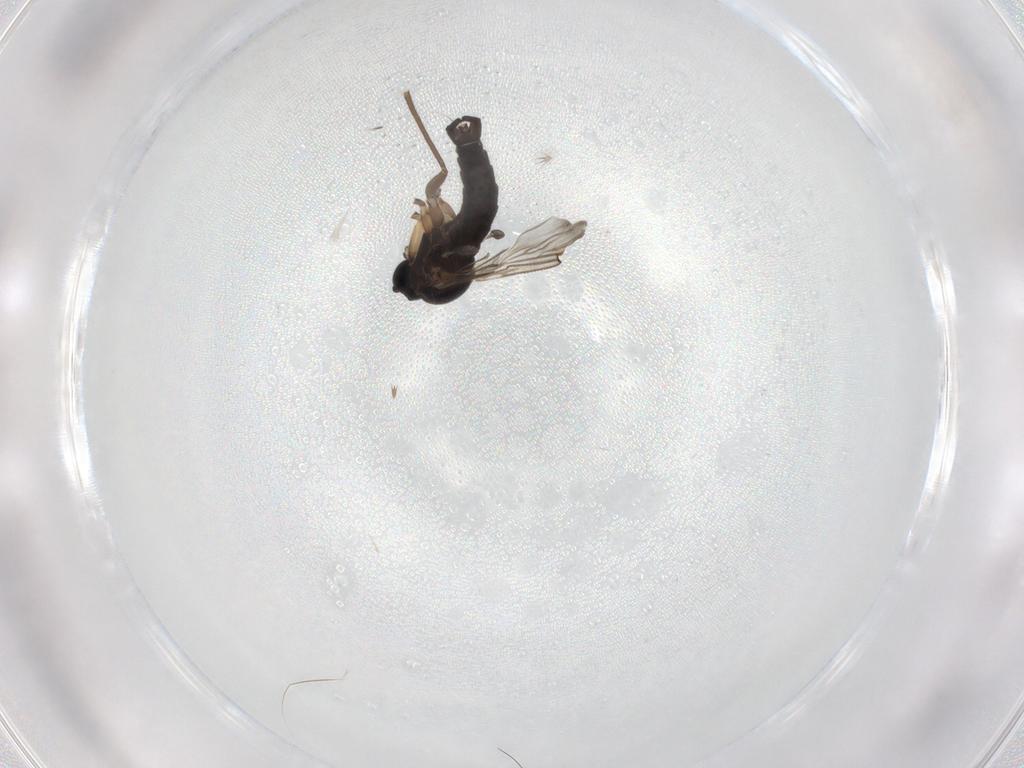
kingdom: Animalia
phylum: Arthropoda
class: Insecta
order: Diptera
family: Sciaridae
